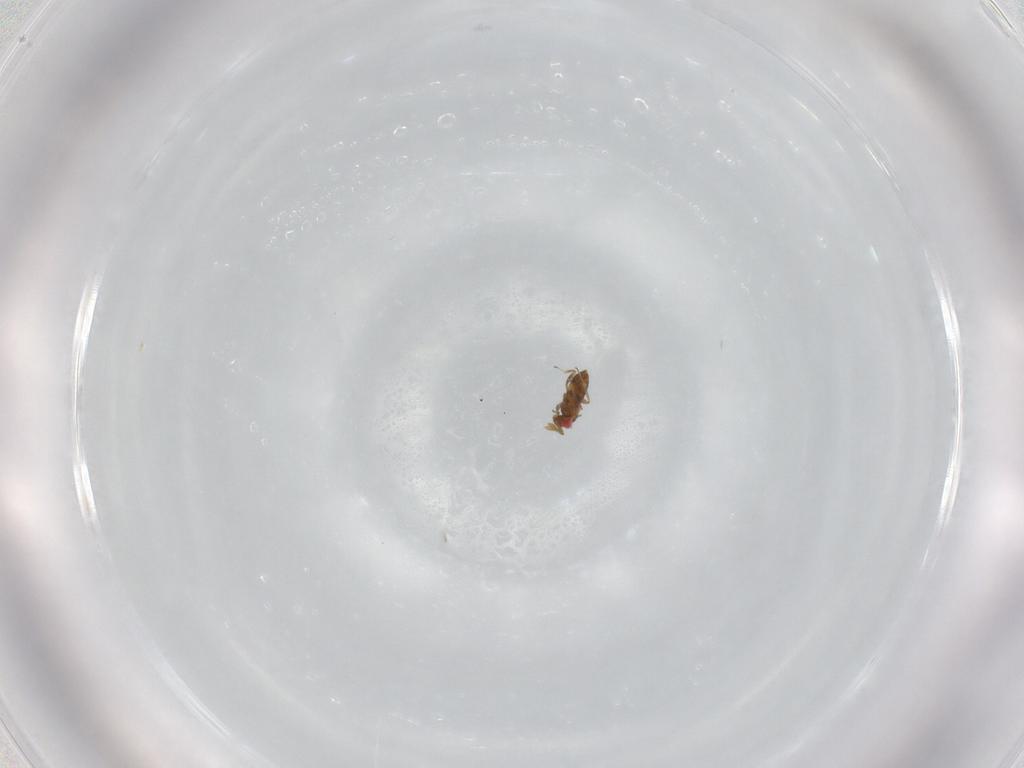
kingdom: Animalia
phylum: Arthropoda
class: Insecta
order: Hymenoptera
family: Trichogrammatidae
